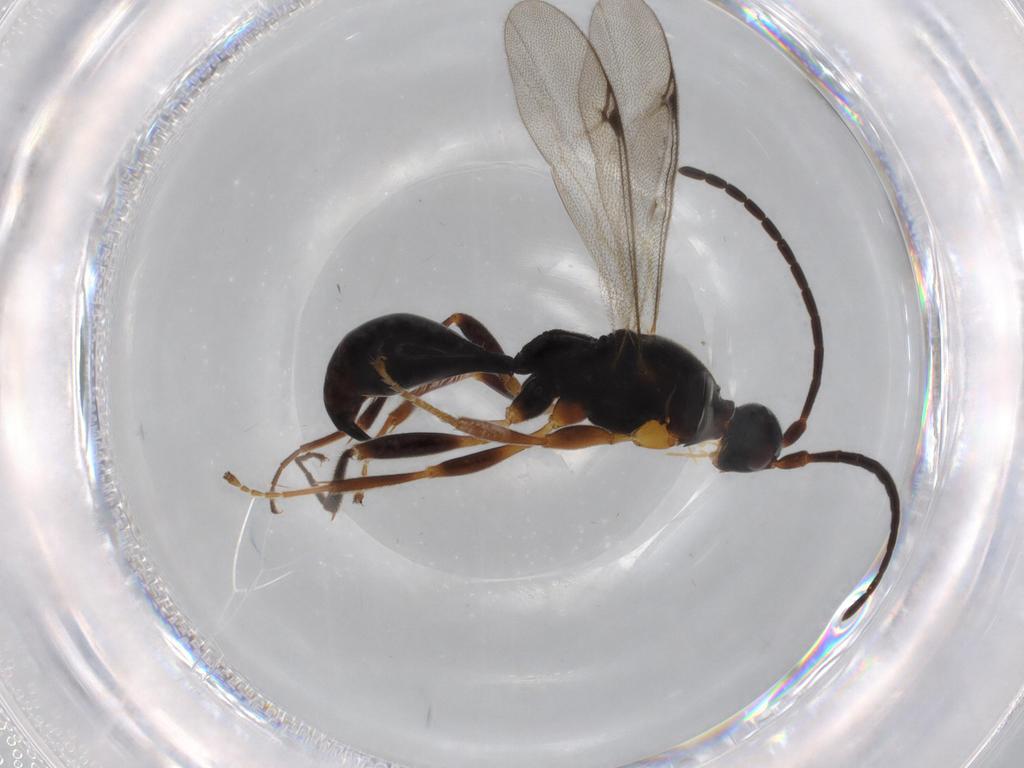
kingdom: Animalia
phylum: Arthropoda
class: Insecta
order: Hymenoptera
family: Proctotrupidae
